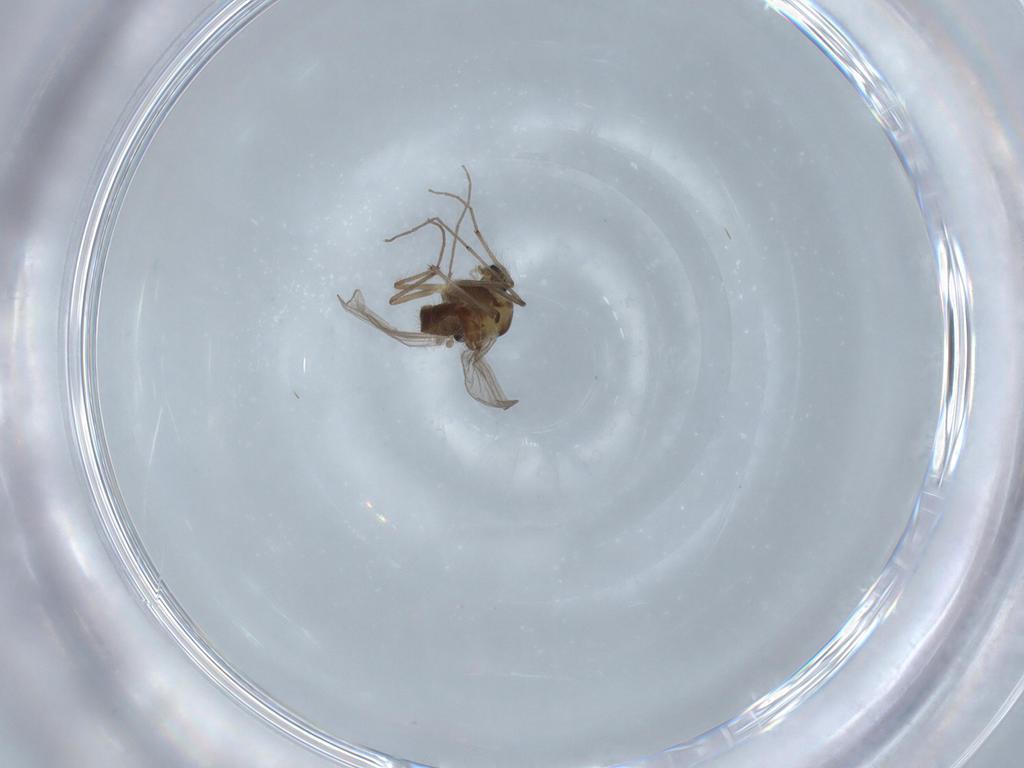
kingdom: Animalia
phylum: Arthropoda
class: Insecta
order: Diptera
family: Chironomidae
